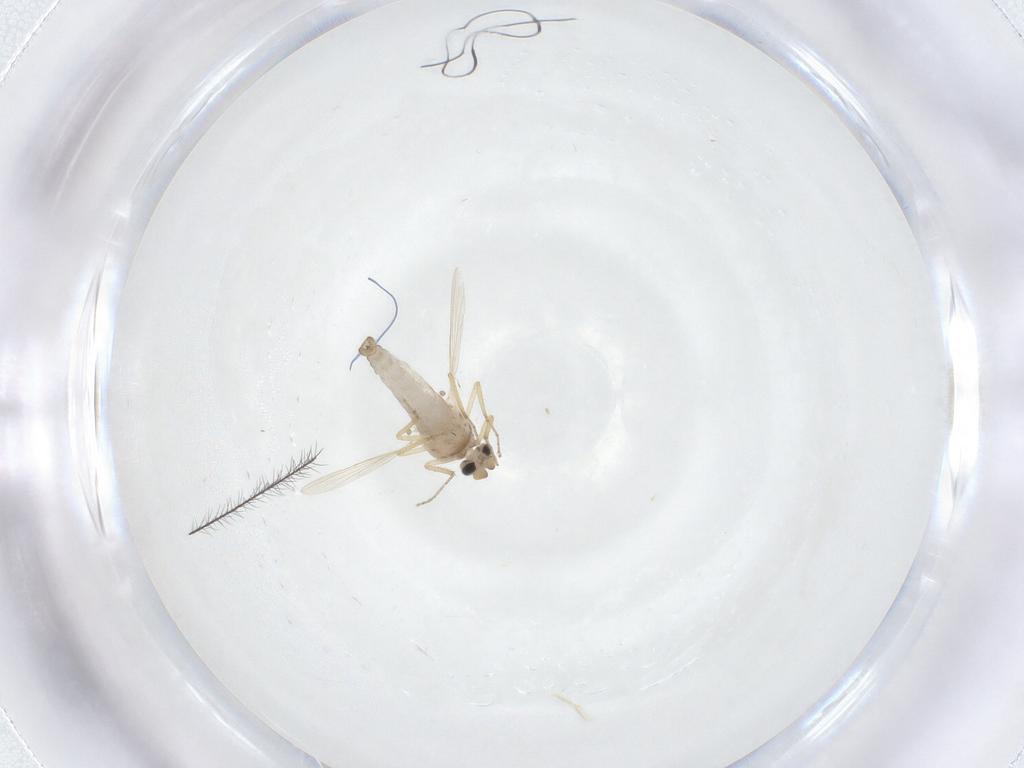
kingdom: Animalia
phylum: Arthropoda
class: Insecta
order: Diptera
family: Ceratopogonidae
